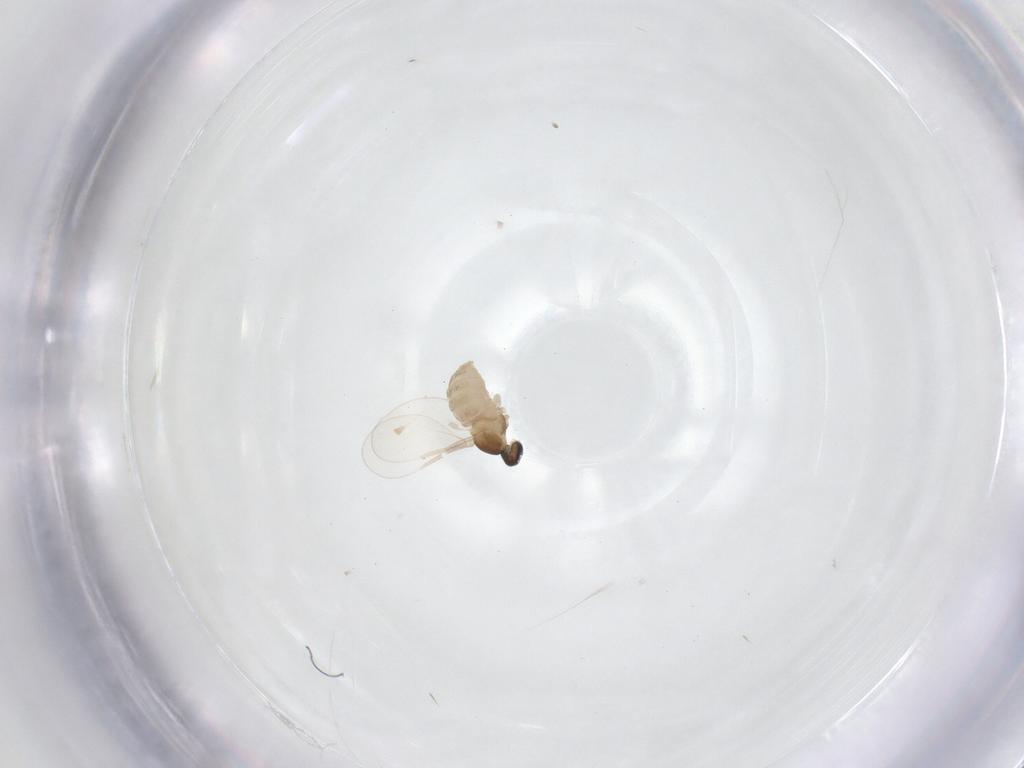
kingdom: Animalia
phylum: Arthropoda
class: Insecta
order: Diptera
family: Cecidomyiidae
